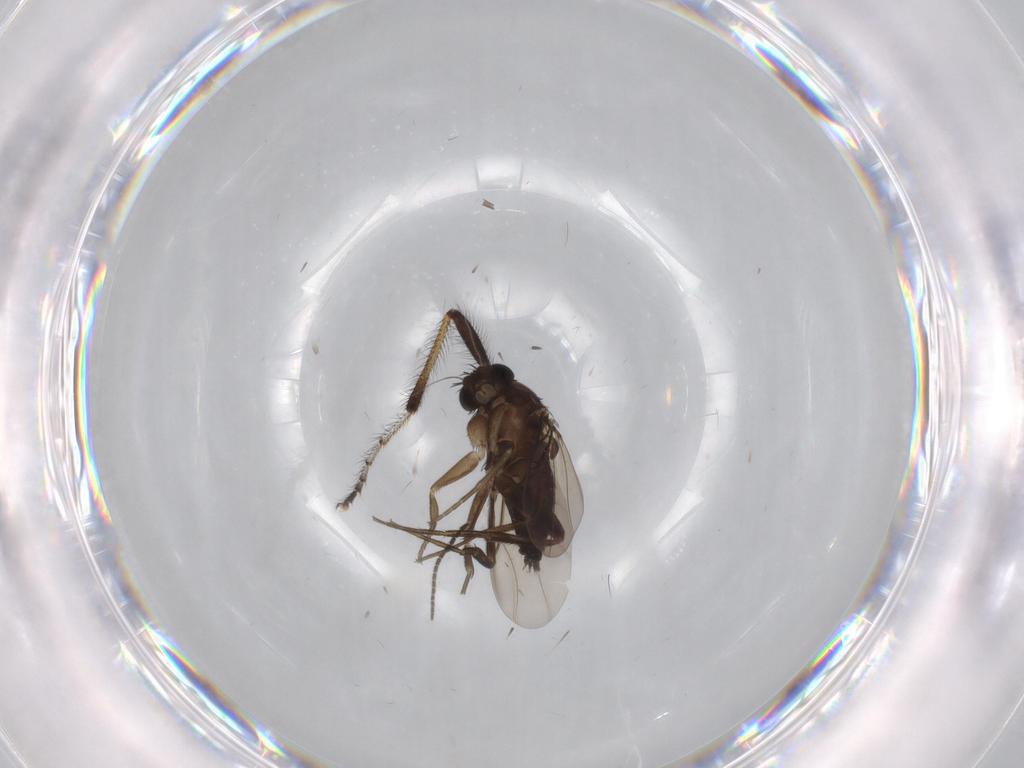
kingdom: Animalia
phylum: Arthropoda
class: Insecta
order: Diptera
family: Phoridae
